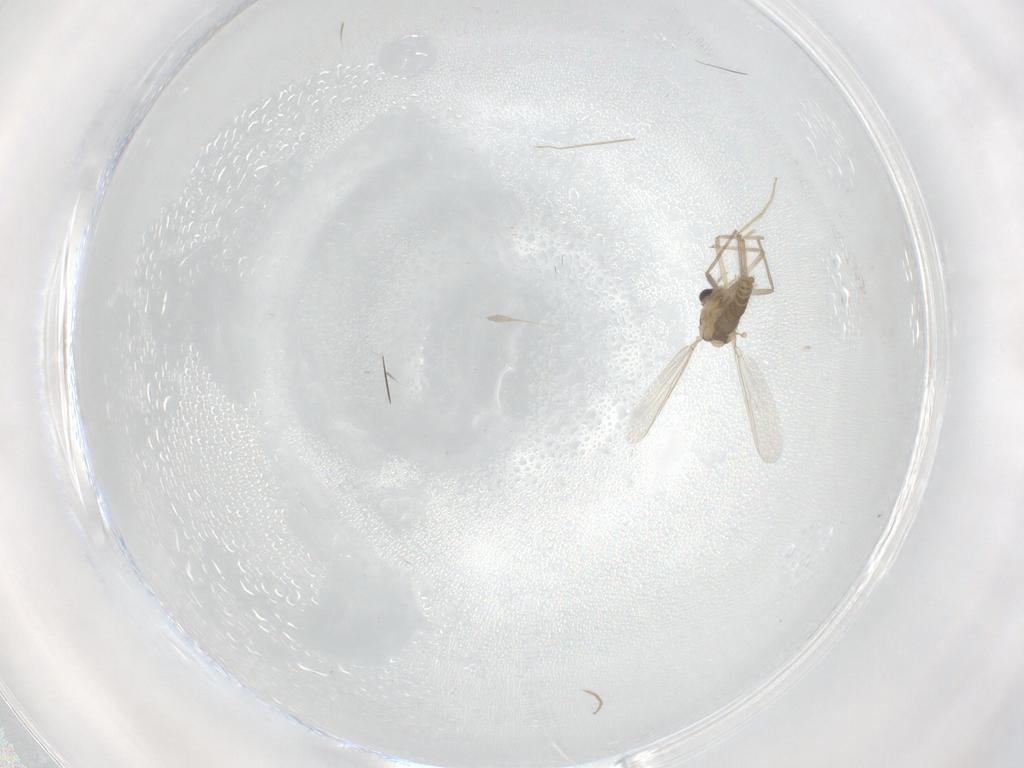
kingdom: Animalia
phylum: Arthropoda
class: Insecta
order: Diptera
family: Chironomidae
